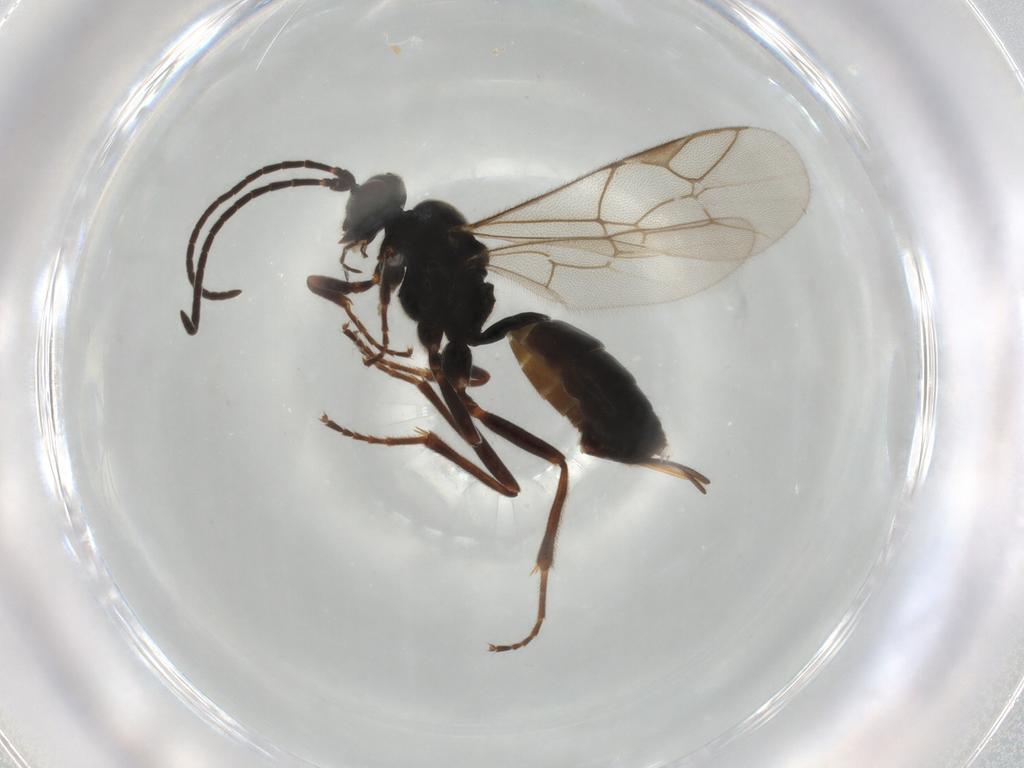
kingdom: Animalia
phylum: Arthropoda
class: Insecta
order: Hymenoptera
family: Ichneumonidae
